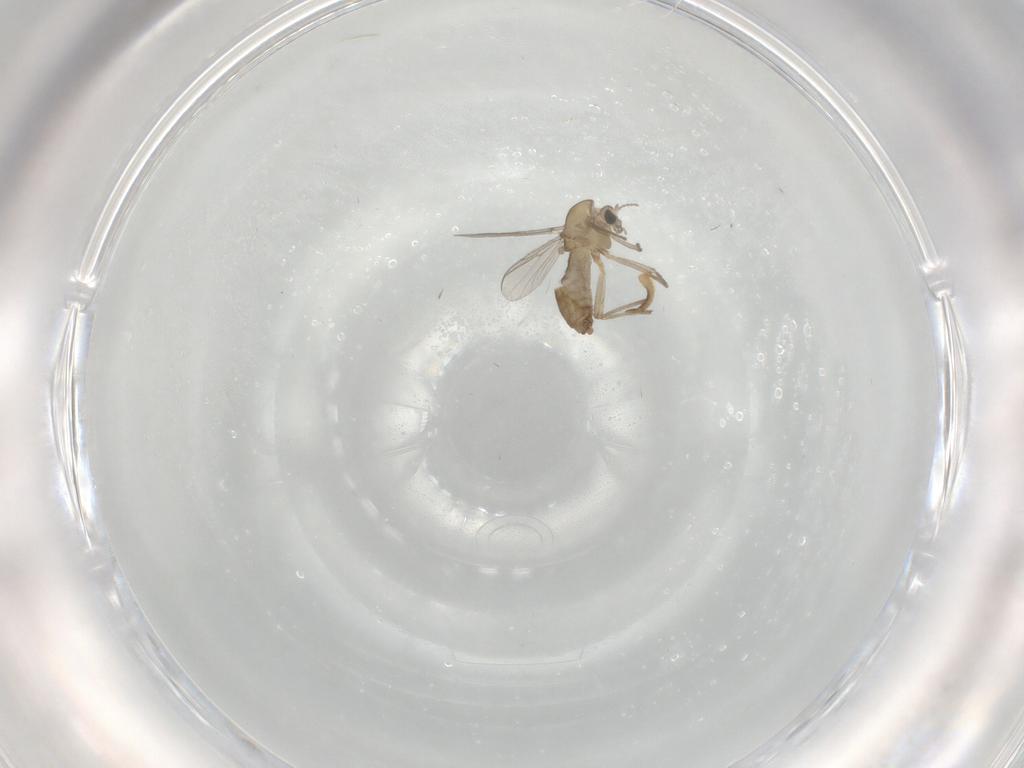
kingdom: Animalia
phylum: Arthropoda
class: Insecta
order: Diptera
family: Chironomidae
